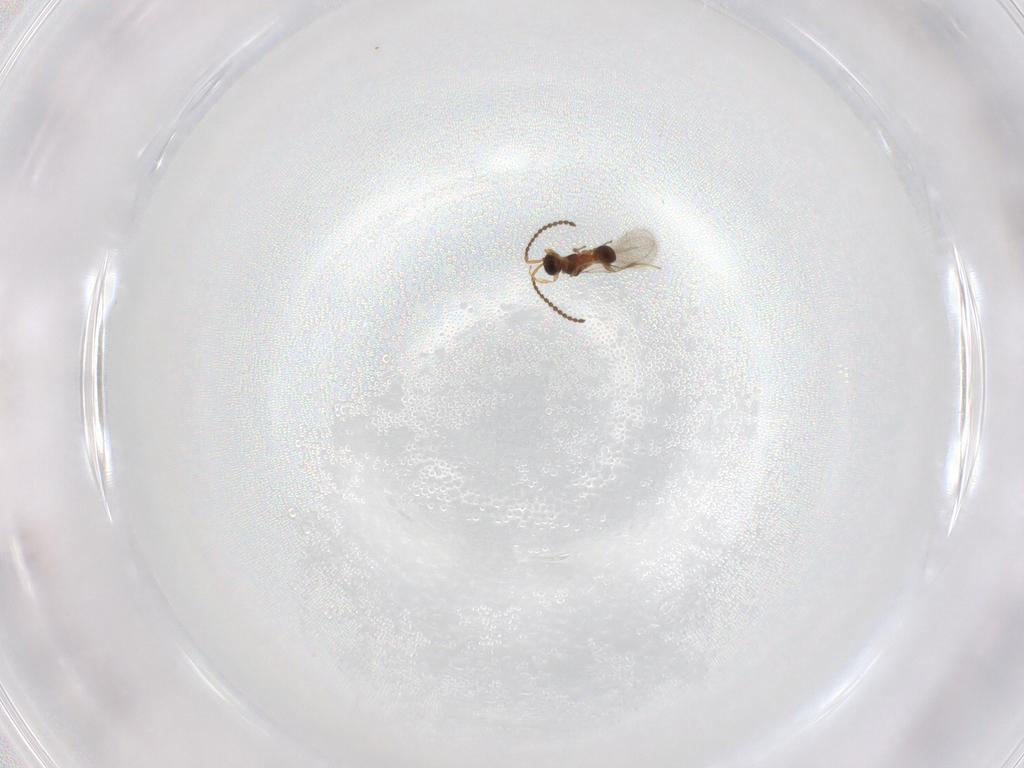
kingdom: Animalia
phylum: Arthropoda
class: Insecta
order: Hymenoptera
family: Diapriidae
